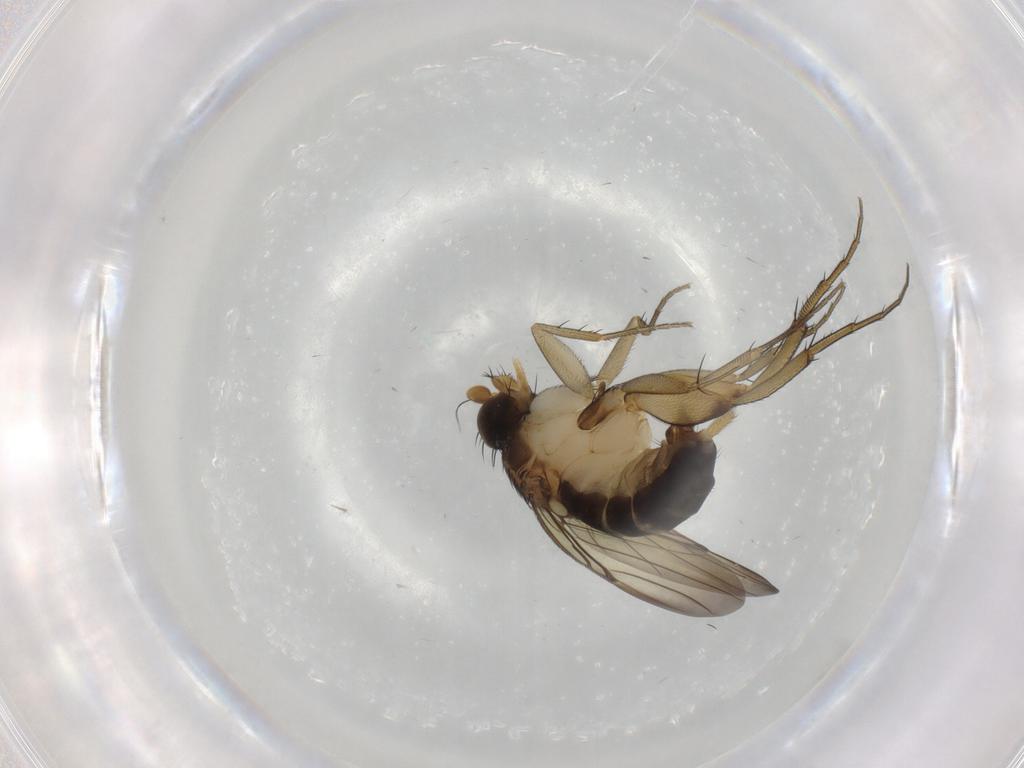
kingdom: Animalia
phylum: Arthropoda
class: Insecta
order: Diptera
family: Phoridae
